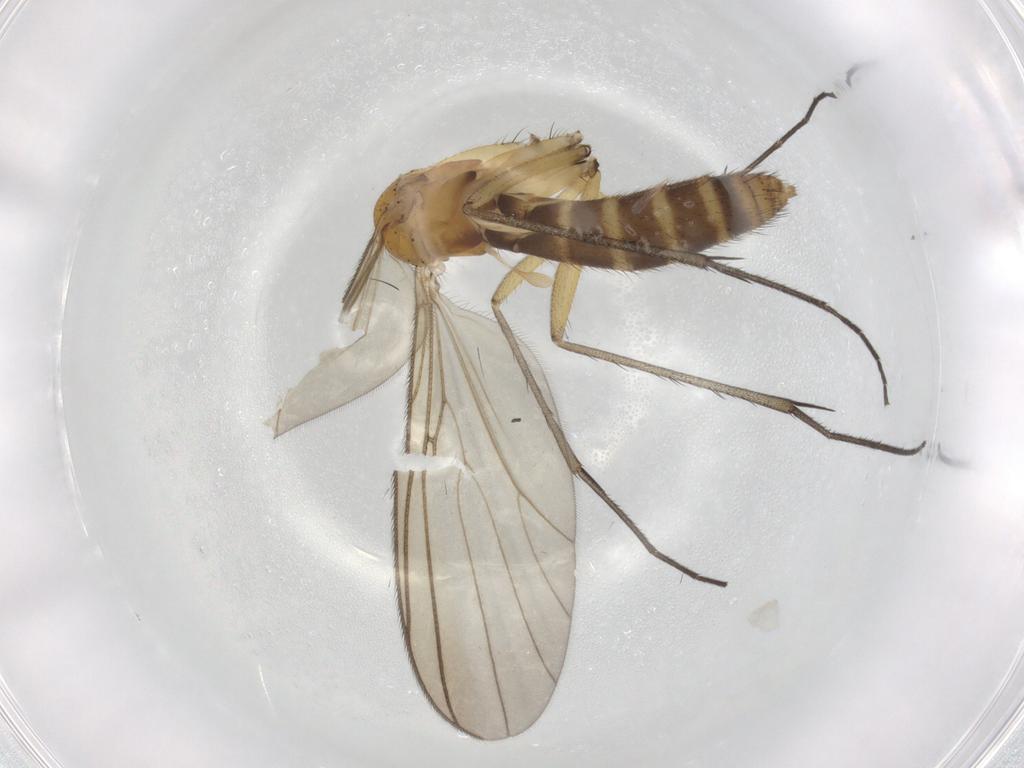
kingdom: Animalia
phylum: Arthropoda
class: Insecta
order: Diptera
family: Mycetophilidae
